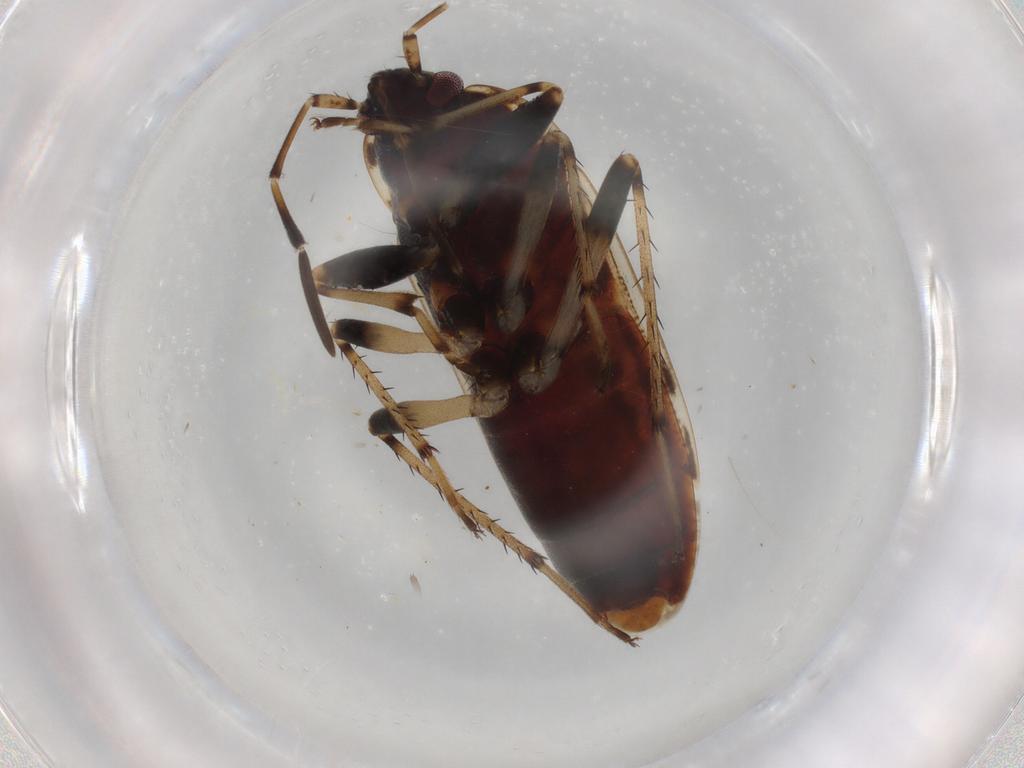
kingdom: Animalia
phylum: Arthropoda
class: Insecta
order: Hemiptera
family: Rhyparochromidae
